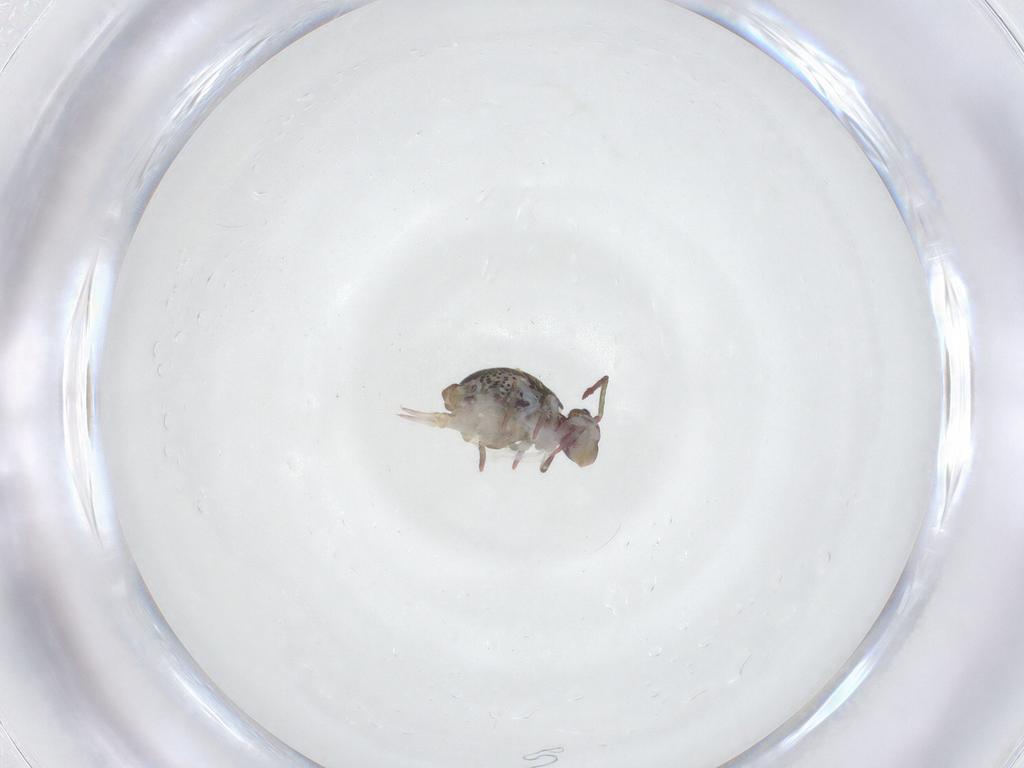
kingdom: Animalia
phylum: Arthropoda
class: Collembola
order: Symphypleona
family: Dicyrtomidae
